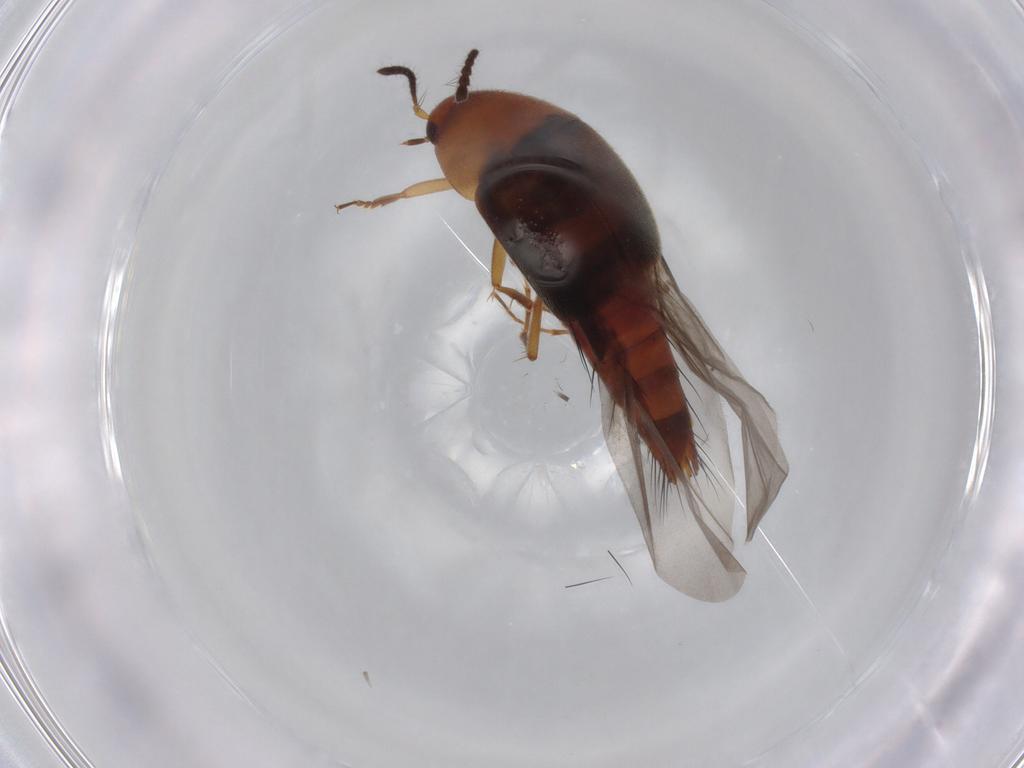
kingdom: Animalia
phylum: Arthropoda
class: Insecta
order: Coleoptera
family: Staphylinidae
